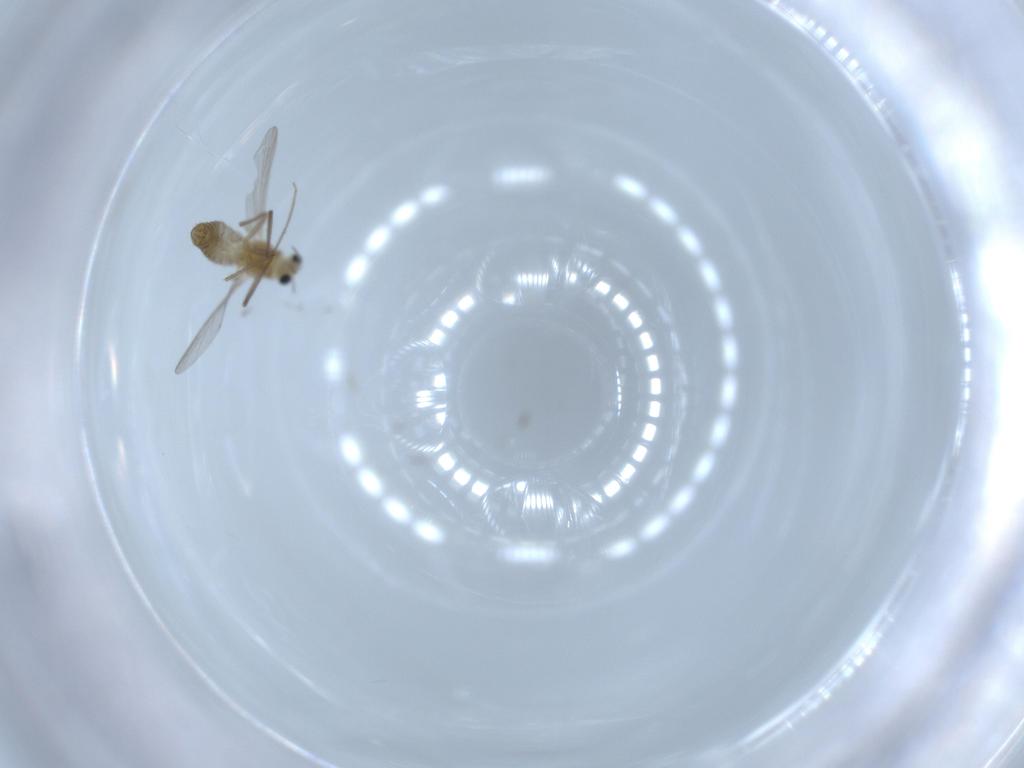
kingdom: Animalia
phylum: Arthropoda
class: Insecta
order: Diptera
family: Chironomidae
